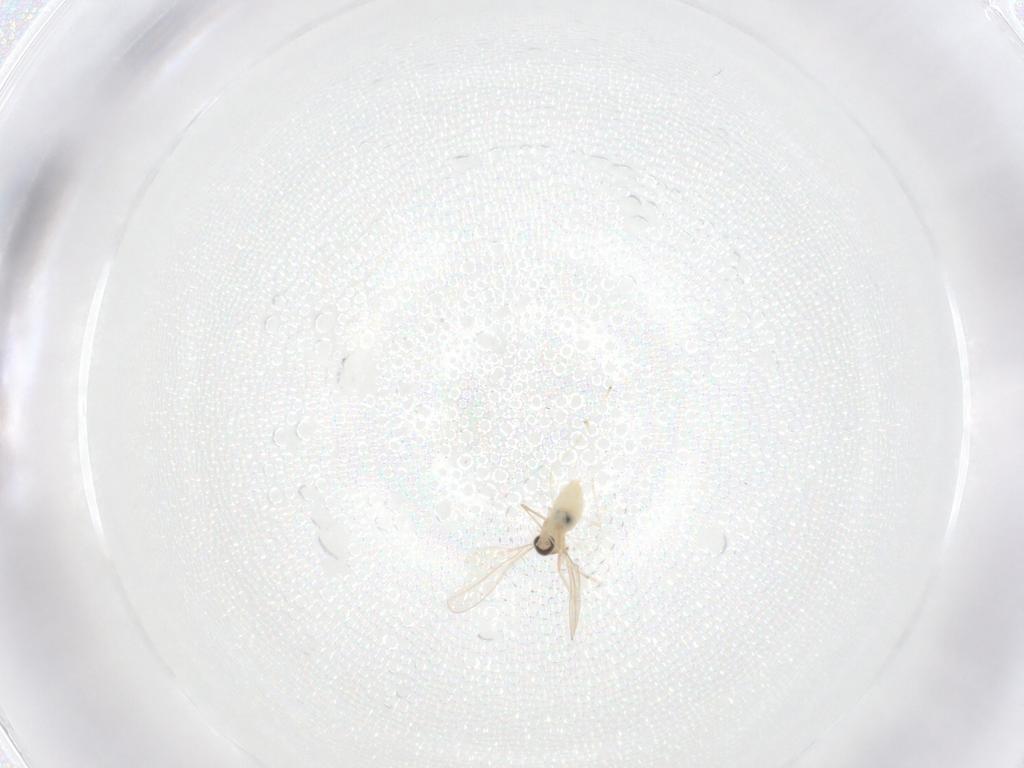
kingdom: Animalia
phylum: Arthropoda
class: Insecta
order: Diptera
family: Cecidomyiidae
